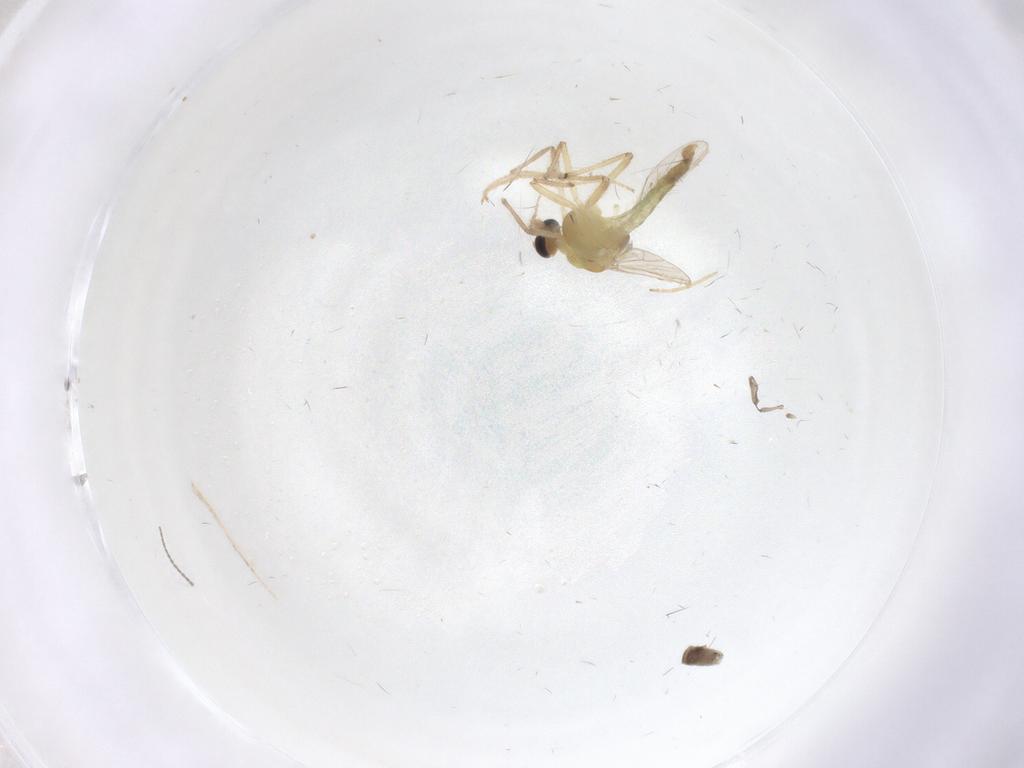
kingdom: Animalia
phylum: Arthropoda
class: Insecta
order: Diptera
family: Chironomidae
